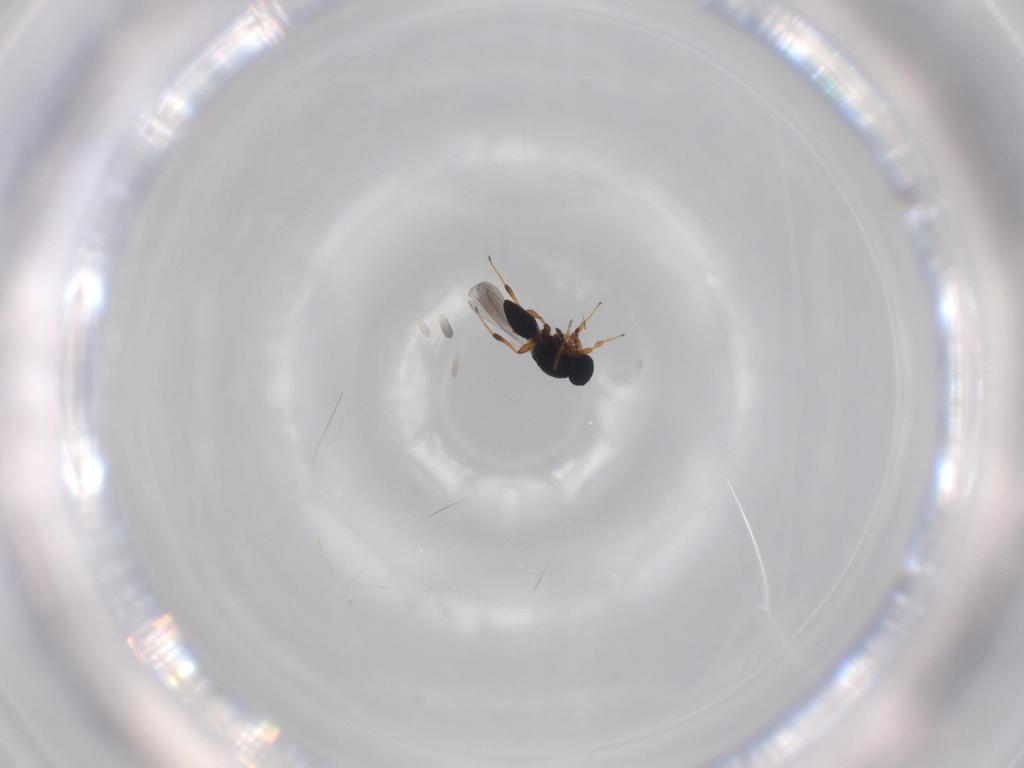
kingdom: Animalia
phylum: Arthropoda
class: Insecta
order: Hymenoptera
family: Platygastridae
